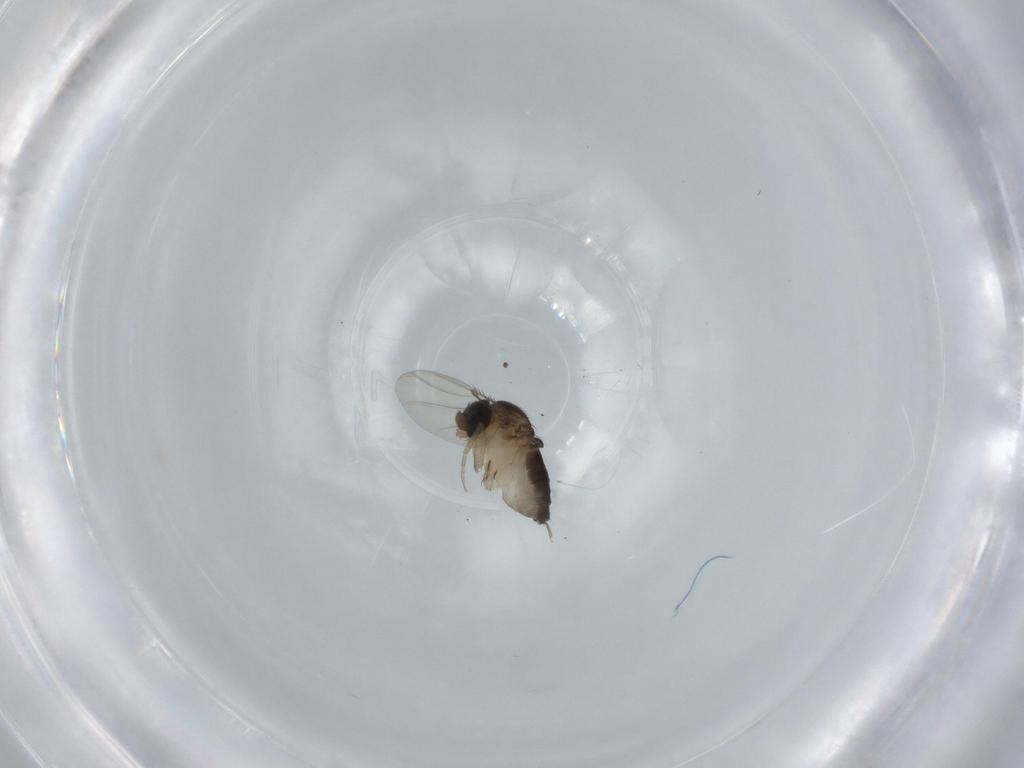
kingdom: Animalia
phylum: Arthropoda
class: Insecta
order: Diptera
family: Phoridae
